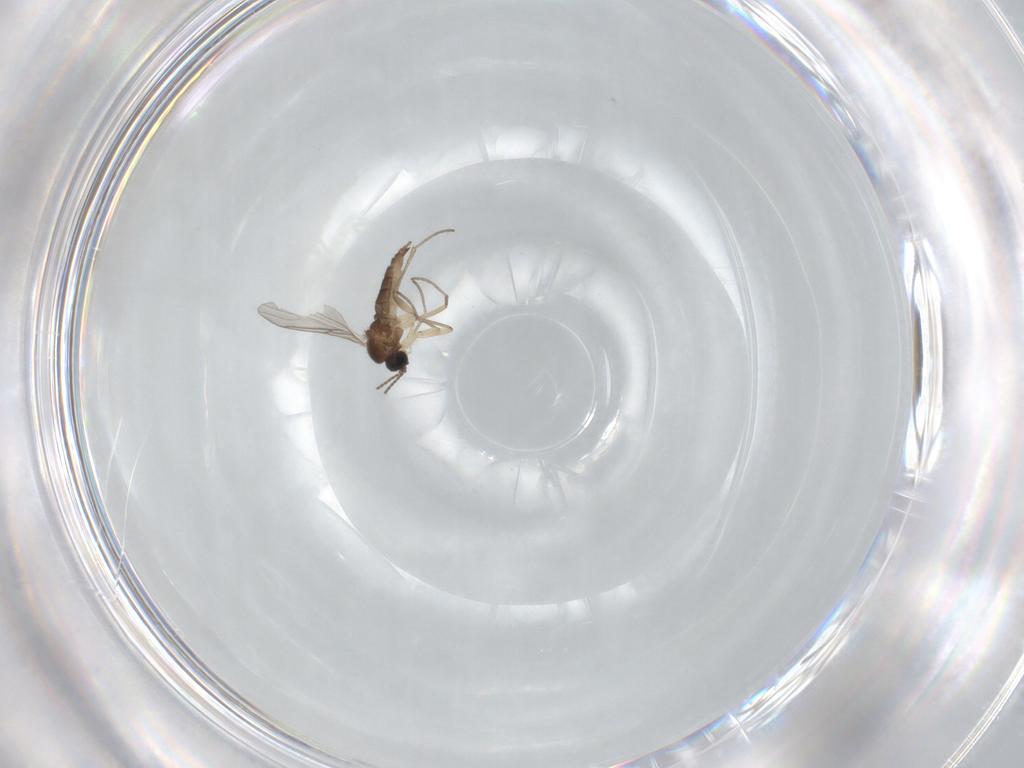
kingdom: Animalia
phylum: Arthropoda
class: Insecta
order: Diptera
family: Sciaridae
